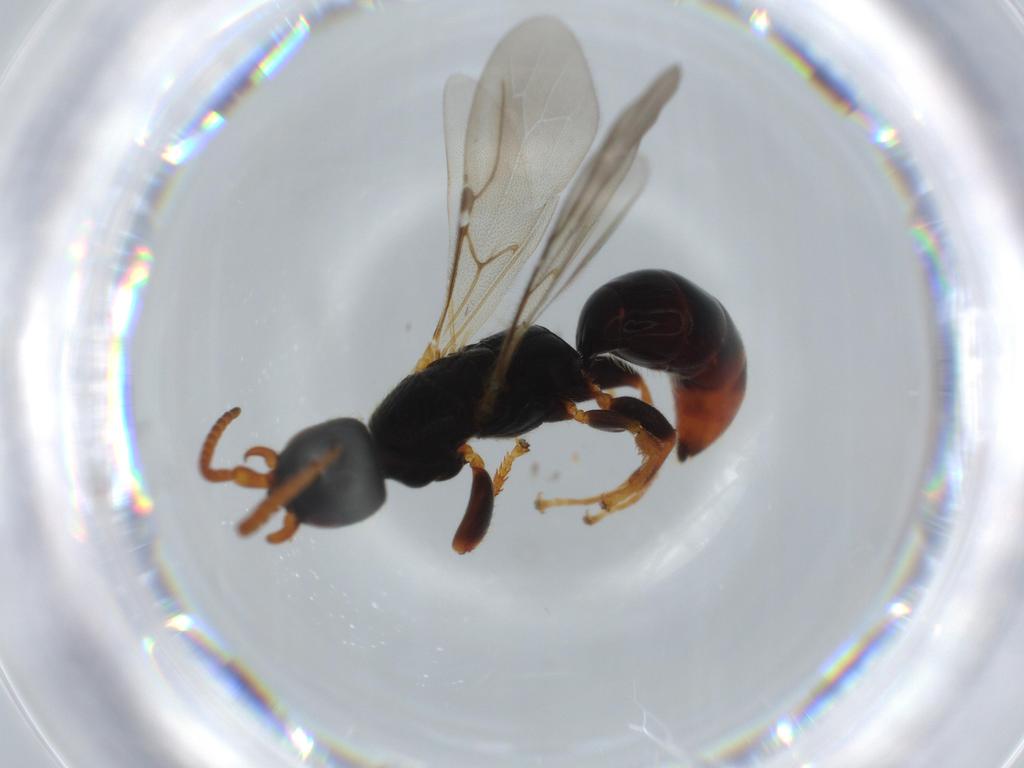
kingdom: Animalia
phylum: Arthropoda
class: Insecta
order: Hymenoptera
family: Bethylidae
